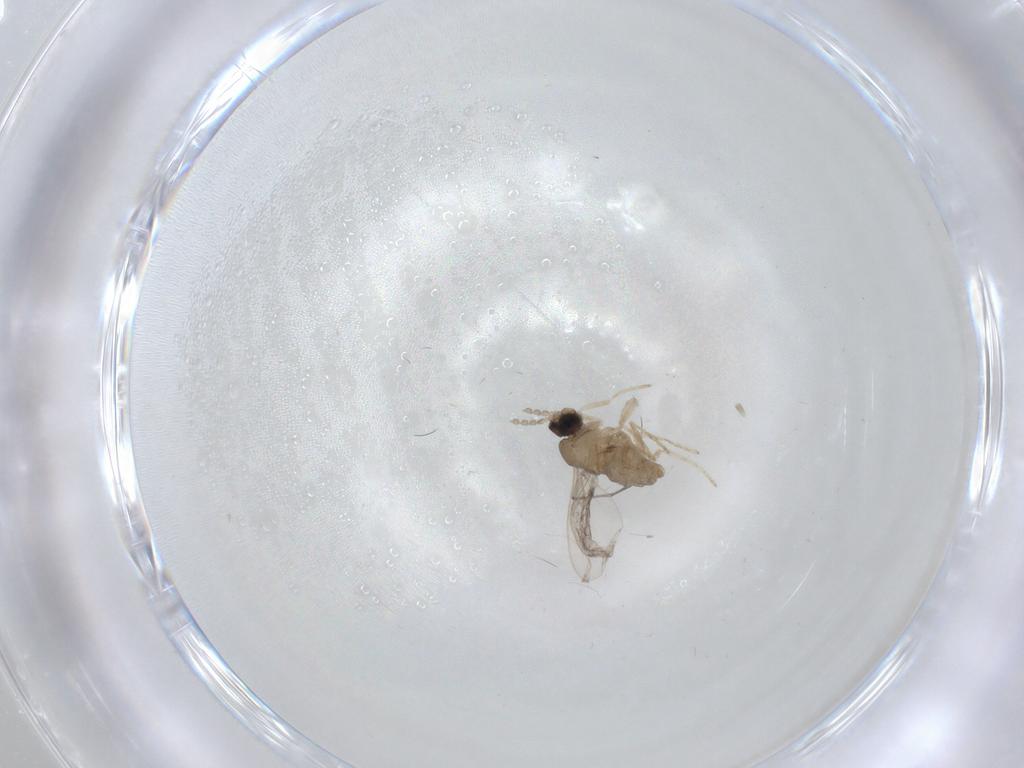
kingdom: Animalia
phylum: Arthropoda
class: Insecta
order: Diptera
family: Cecidomyiidae
